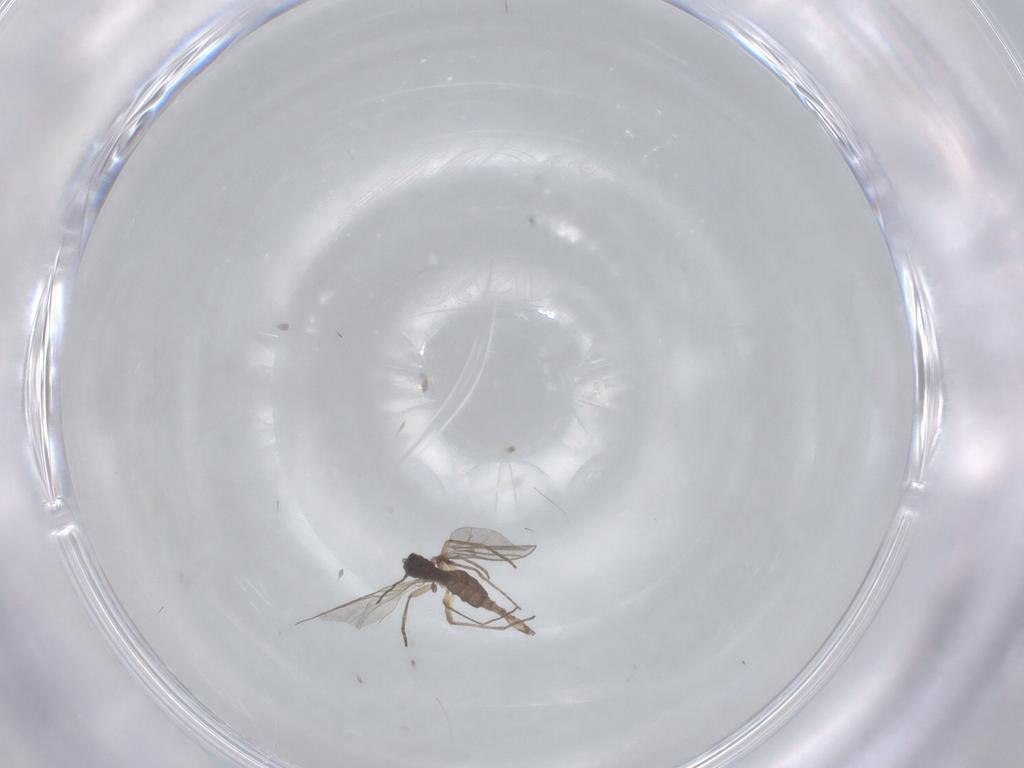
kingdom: Animalia
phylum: Arthropoda
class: Insecta
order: Diptera
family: Sciaridae
